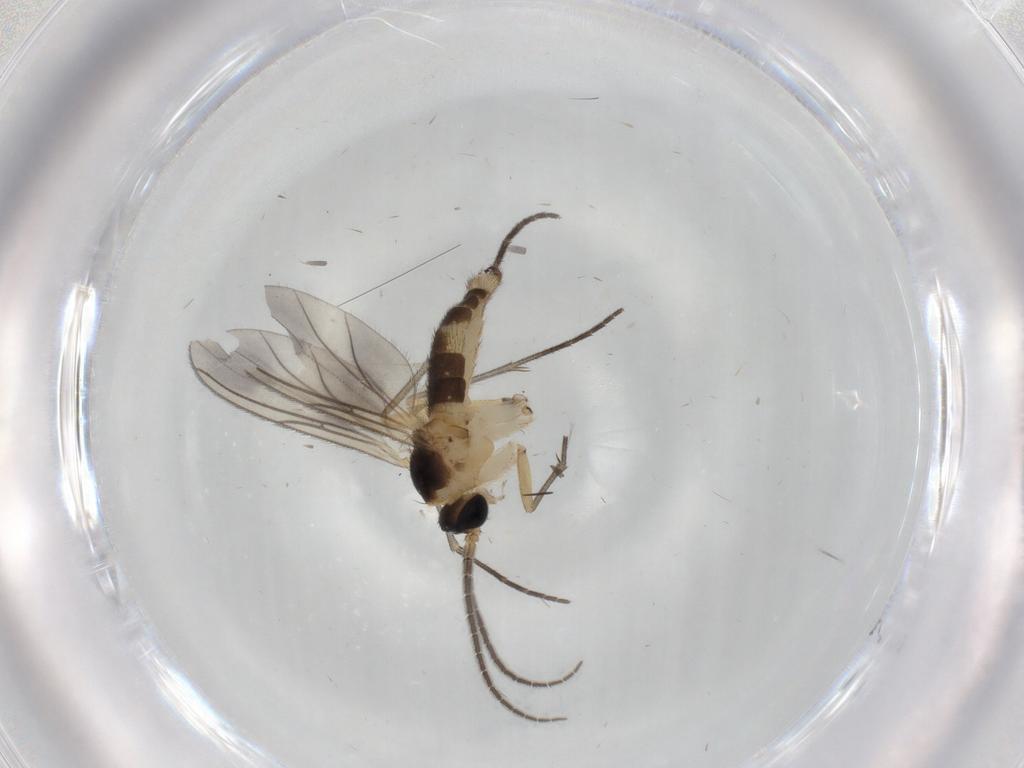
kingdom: Animalia
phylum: Arthropoda
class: Insecta
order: Diptera
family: Sciaridae
